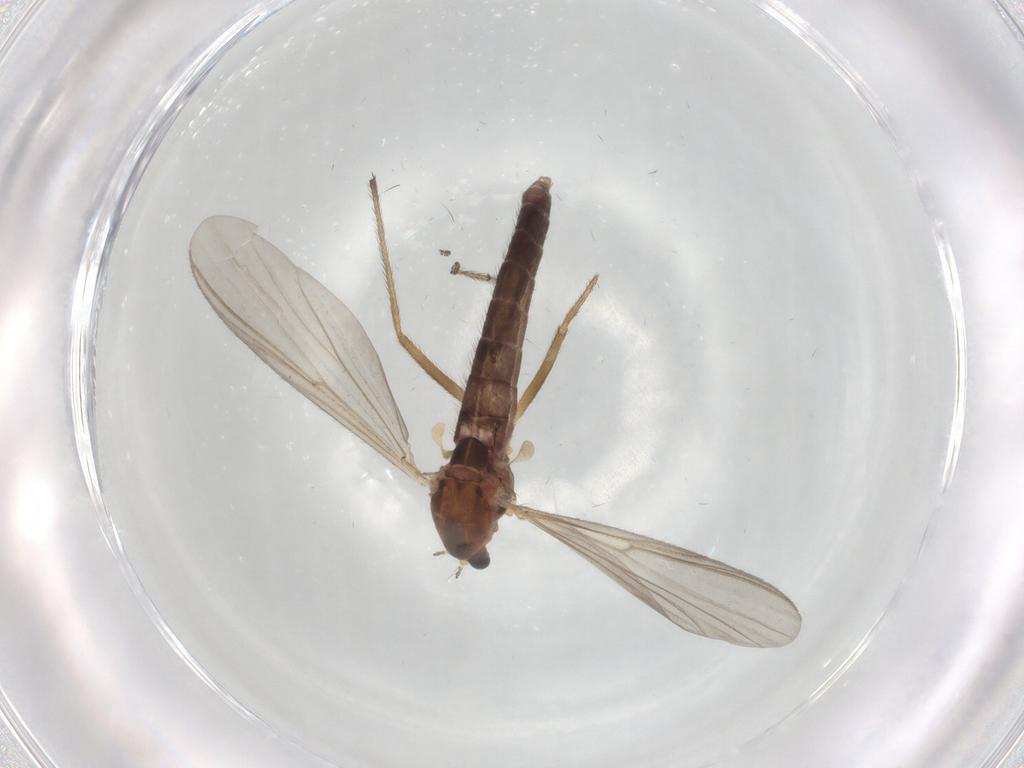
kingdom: Animalia
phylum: Arthropoda
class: Insecta
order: Diptera
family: Chironomidae
